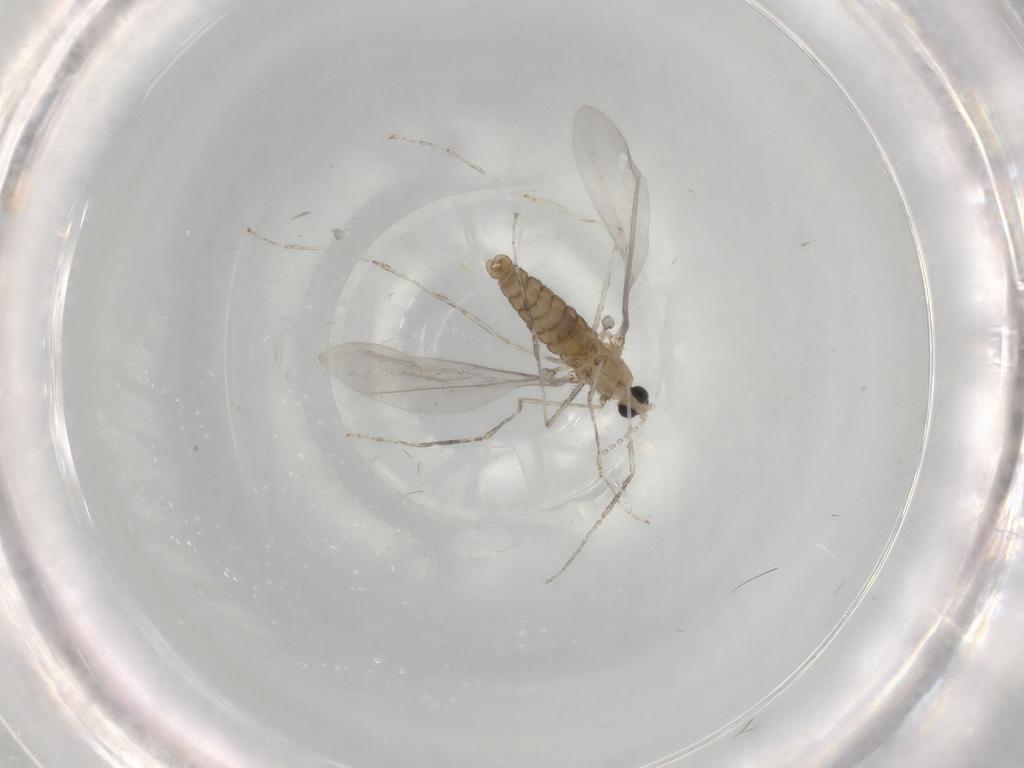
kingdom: Animalia
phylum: Arthropoda
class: Insecta
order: Diptera
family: Cecidomyiidae
